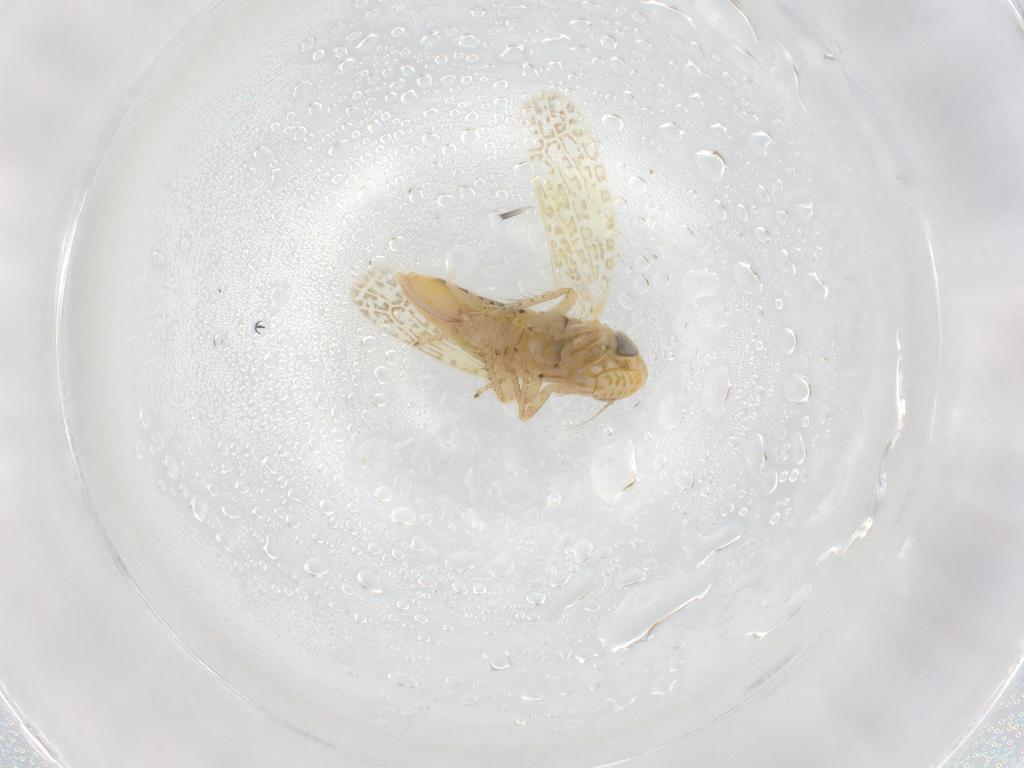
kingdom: Animalia
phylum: Arthropoda
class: Insecta
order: Hemiptera
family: Cicadellidae
